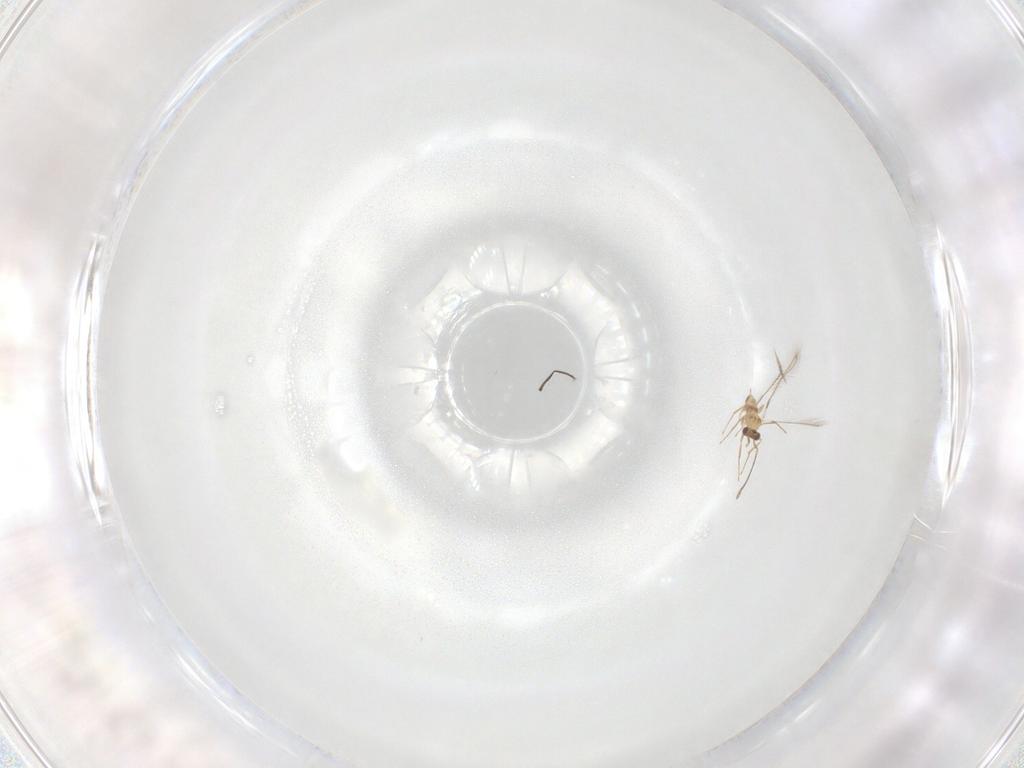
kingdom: Animalia
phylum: Arthropoda
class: Insecta
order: Hymenoptera
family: Mymaridae
